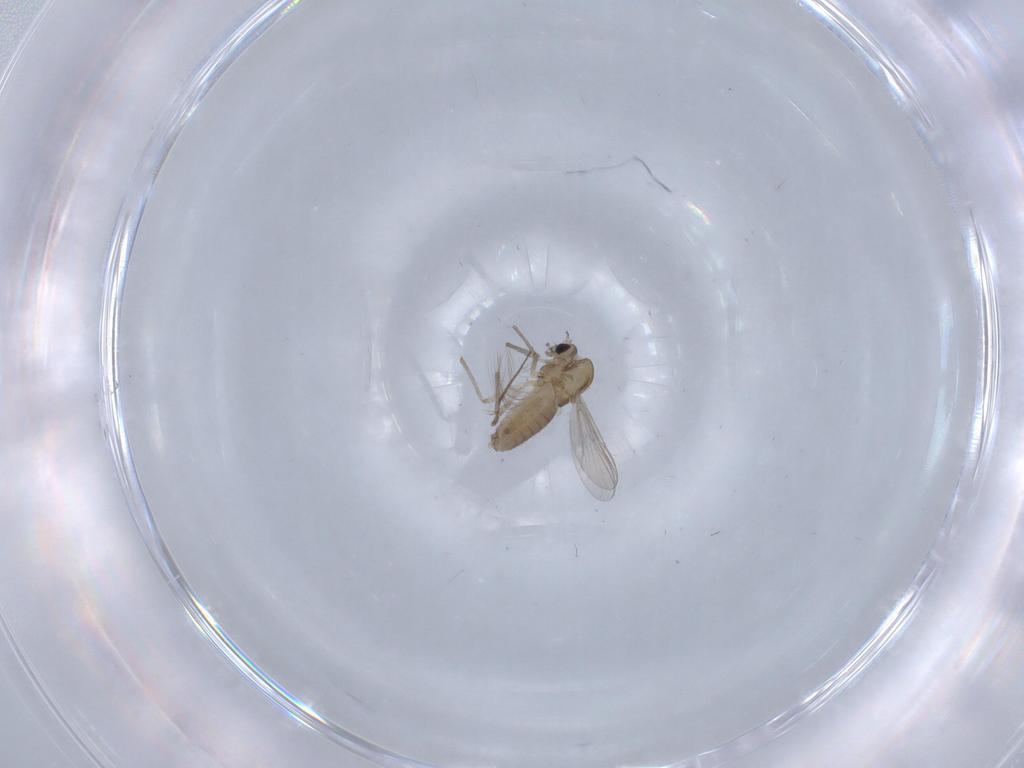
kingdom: Animalia
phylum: Arthropoda
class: Insecta
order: Diptera
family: Chironomidae
